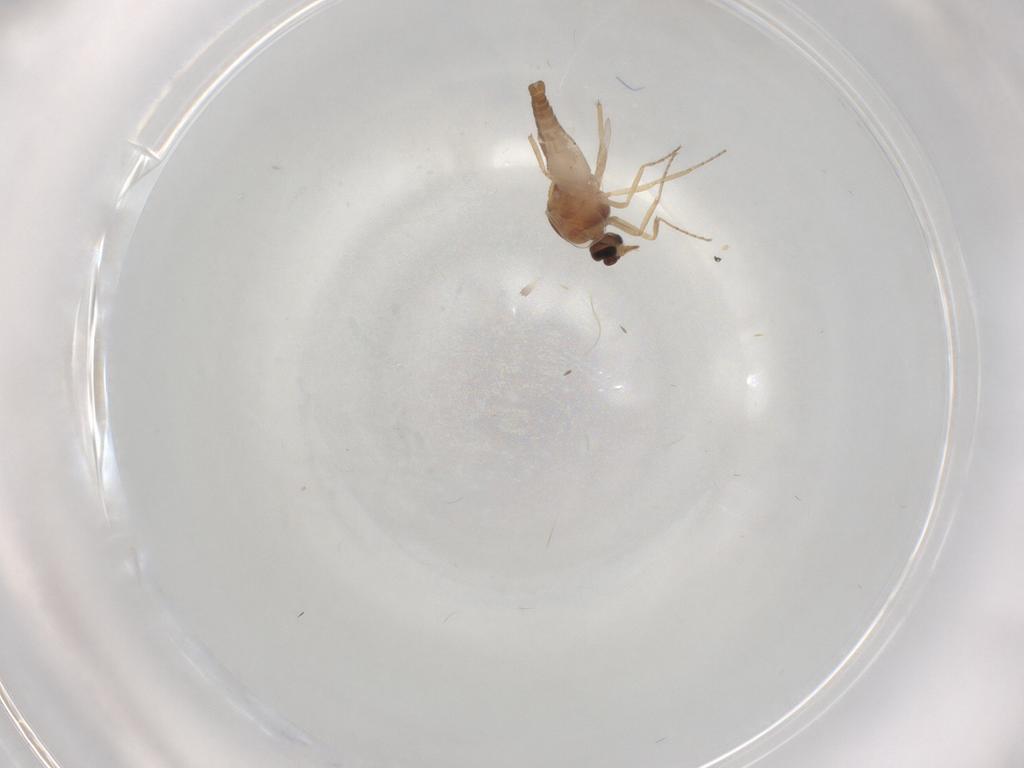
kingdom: Animalia
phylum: Arthropoda
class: Insecta
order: Diptera
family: Ceratopogonidae
